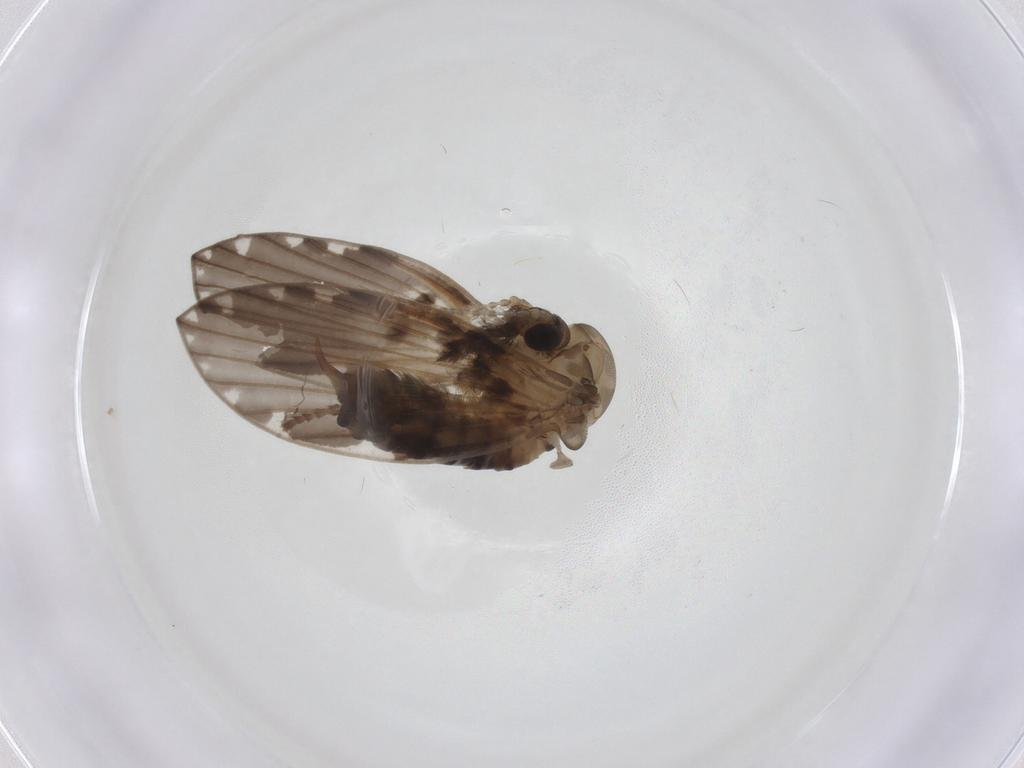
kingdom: Animalia
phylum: Arthropoda
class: Insecta
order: Diptera
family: Psychodidae
